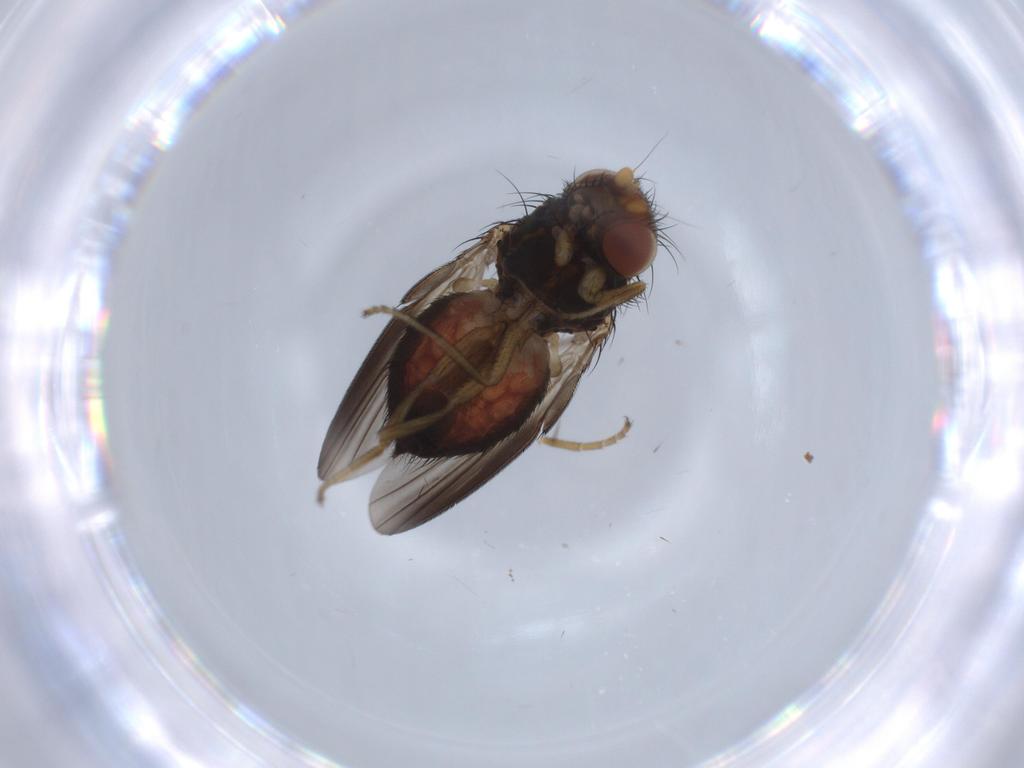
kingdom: Animalia
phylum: Arthropoda
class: Insecta
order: Diptera
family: Milichiidae
